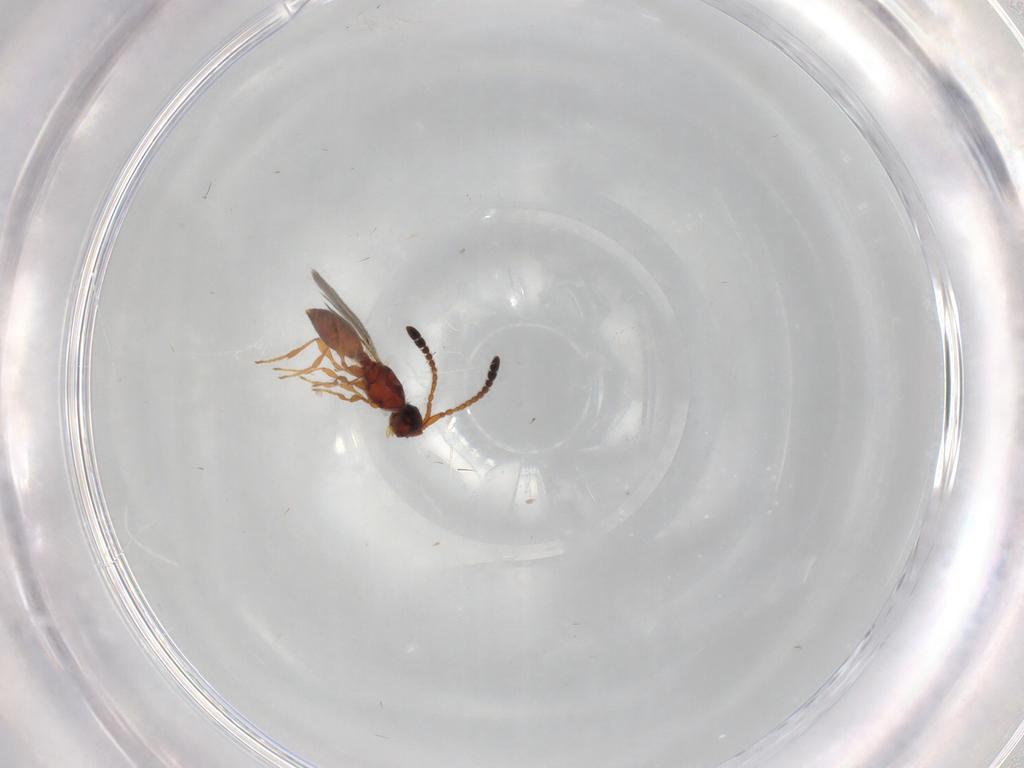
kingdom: Animalia
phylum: Arthropoda
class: Insecta
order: Hymenoptera
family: Diapriidae
